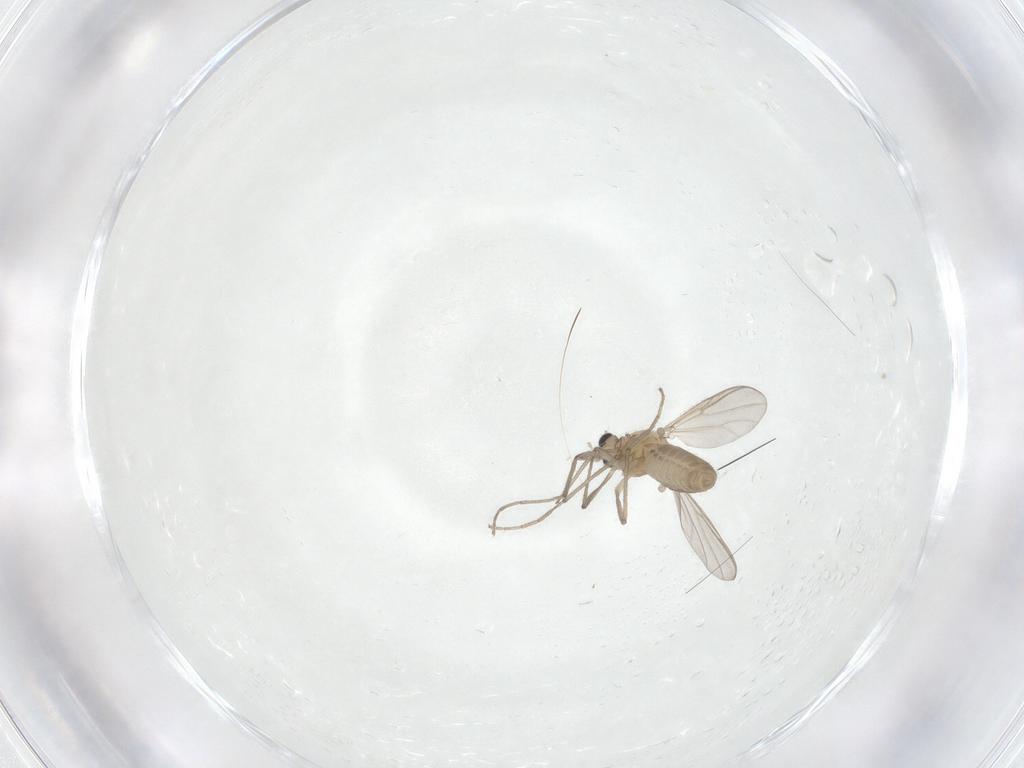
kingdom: Animalia
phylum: Arthropoda
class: Insecta
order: Diptera
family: Chironomidae
